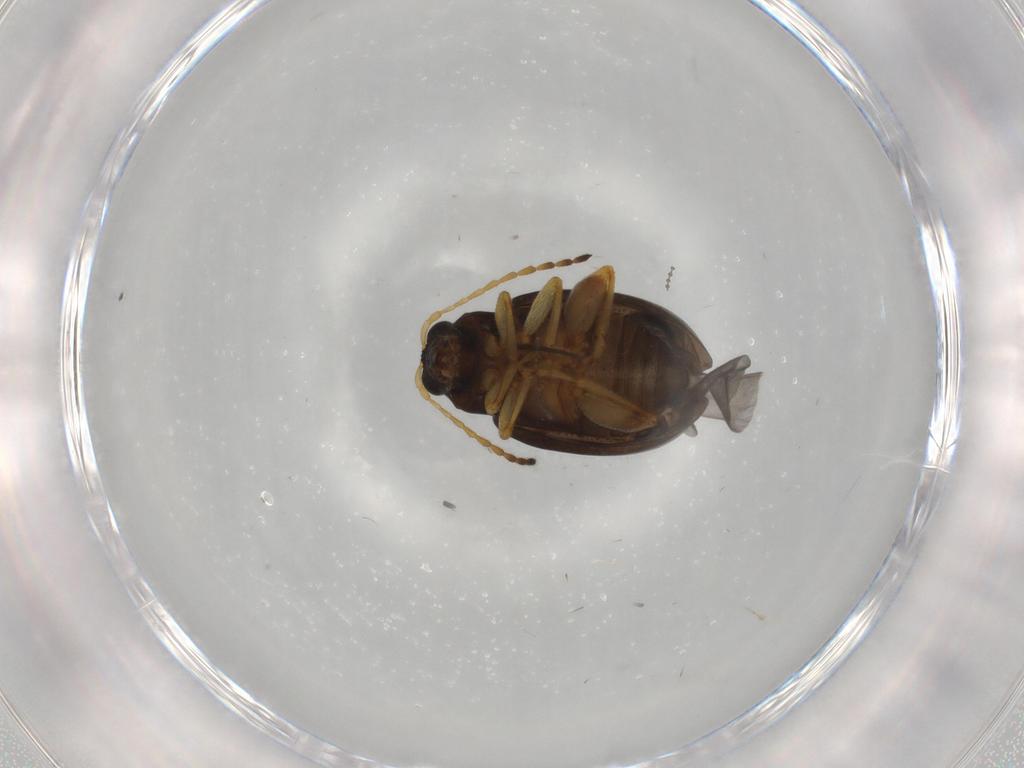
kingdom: Animalia
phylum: Arthropoda
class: Insecta
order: Coleoptera
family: Chrysomelidae
